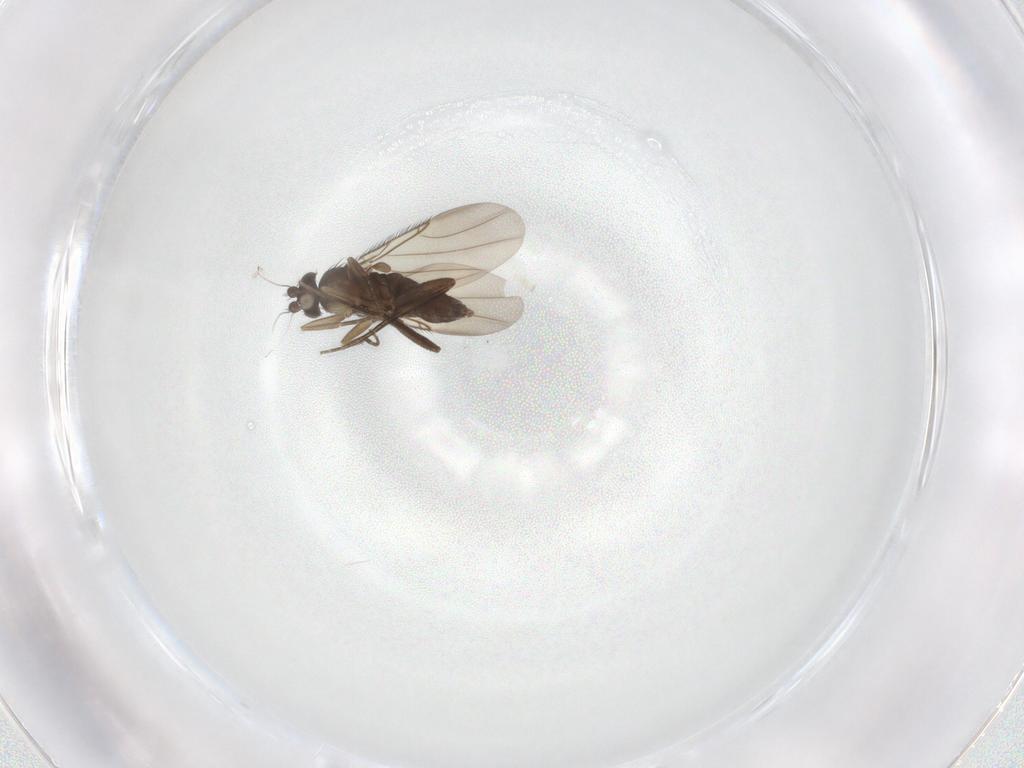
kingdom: Animalia
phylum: Arthropoda
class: Insecta
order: Diptera
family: Phoridae
